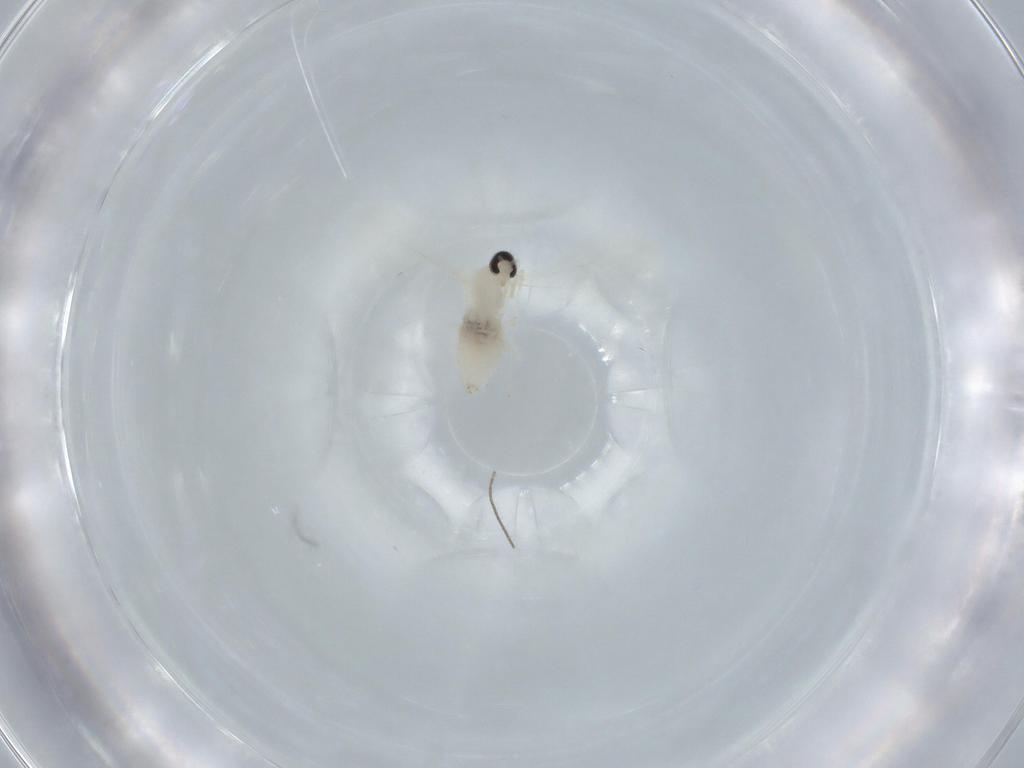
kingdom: Animalia
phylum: Arthropoda
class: Insecta
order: Diptera
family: Cecidomyiidae
